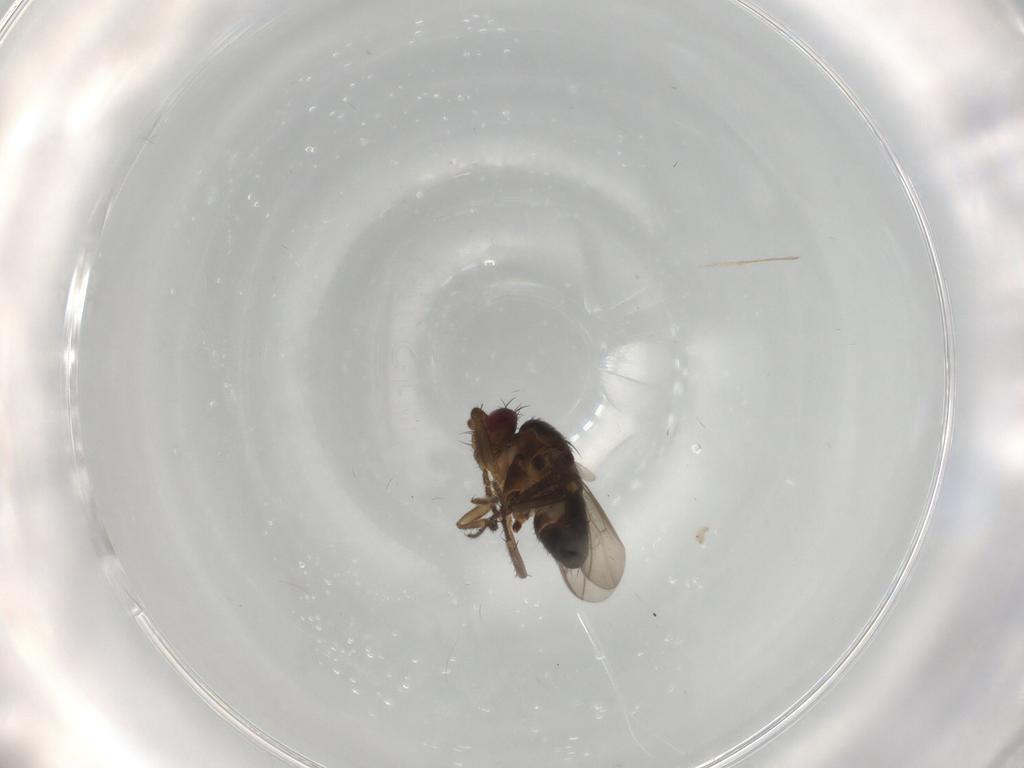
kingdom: Animalia
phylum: Arthropoda
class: Insecta
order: Diptera
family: Sphaeroceridae
